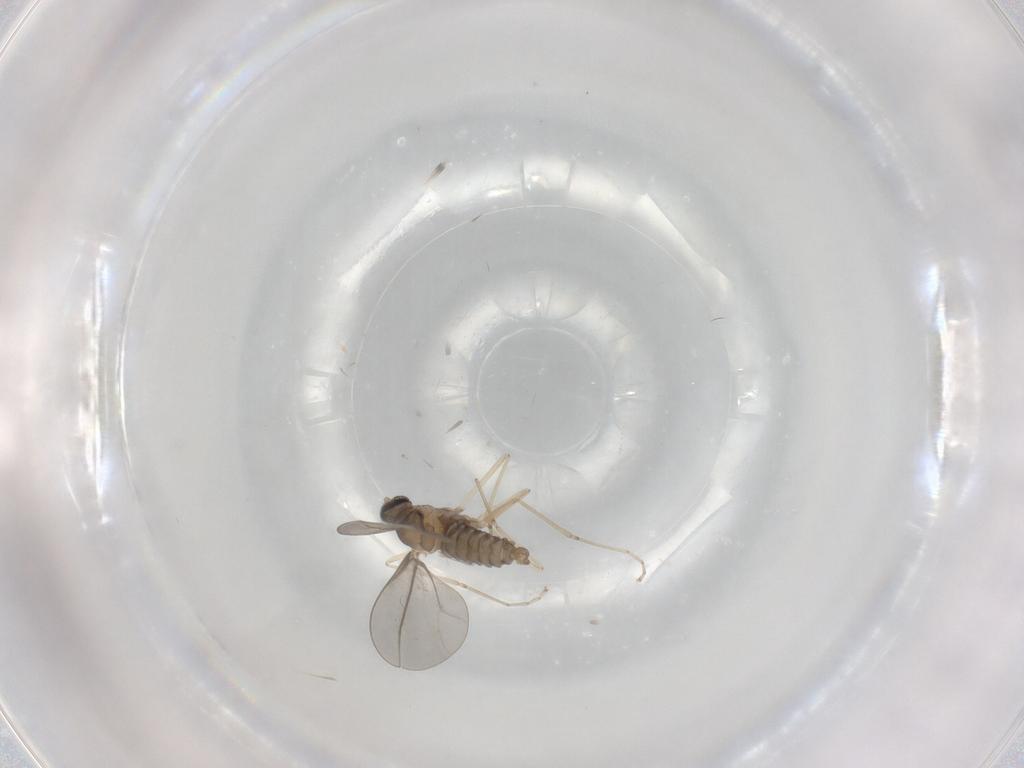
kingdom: Animalia
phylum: Arthropoda
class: Insecta
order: Diptera
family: Cecidomyiidae
